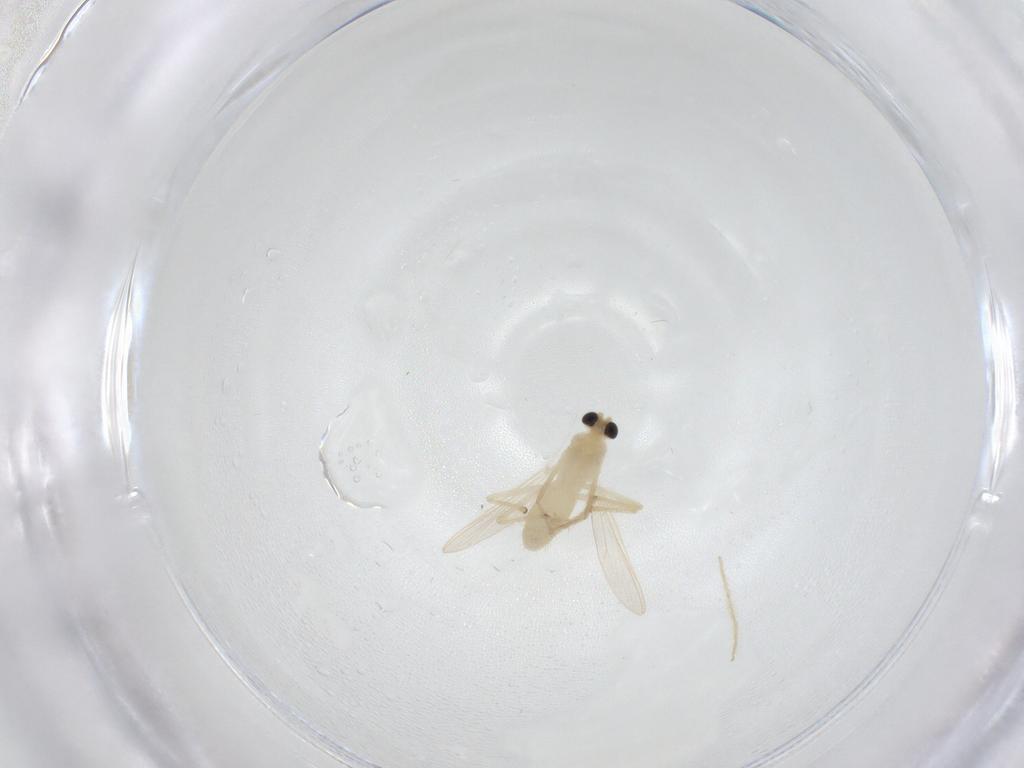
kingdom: Animalia
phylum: Arthropoda
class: Insecta
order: Diptera
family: Chironomidae
